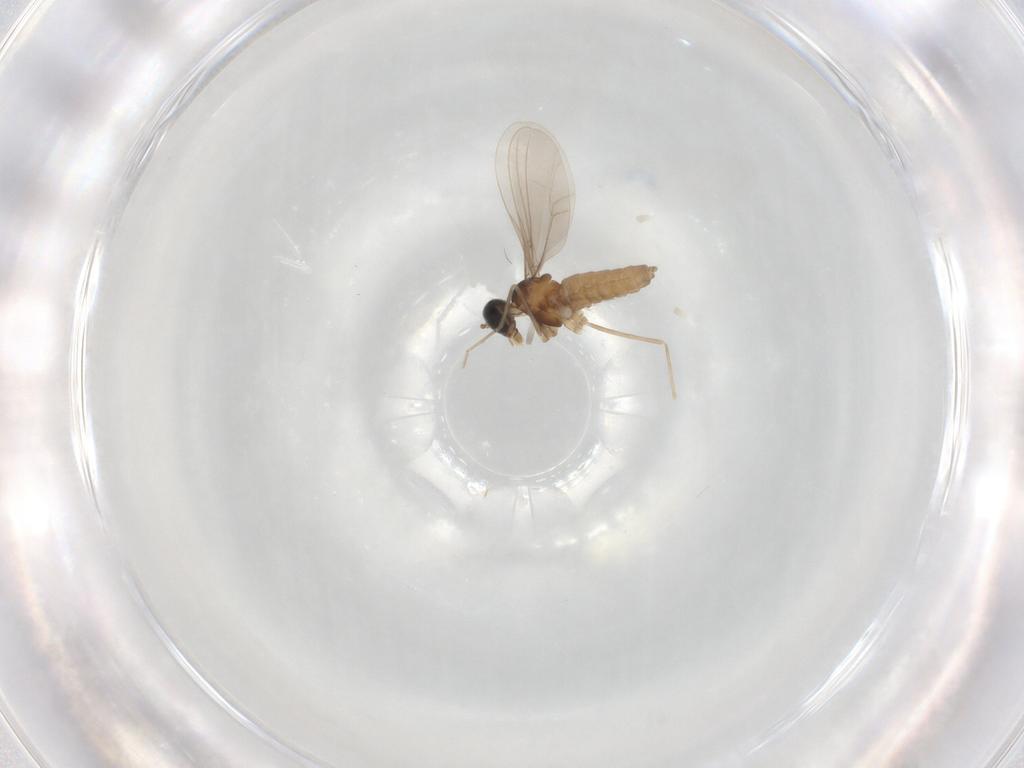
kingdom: Animalia
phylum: Arthropoda
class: Insecta
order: Diptera
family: Cecidomyiidae
